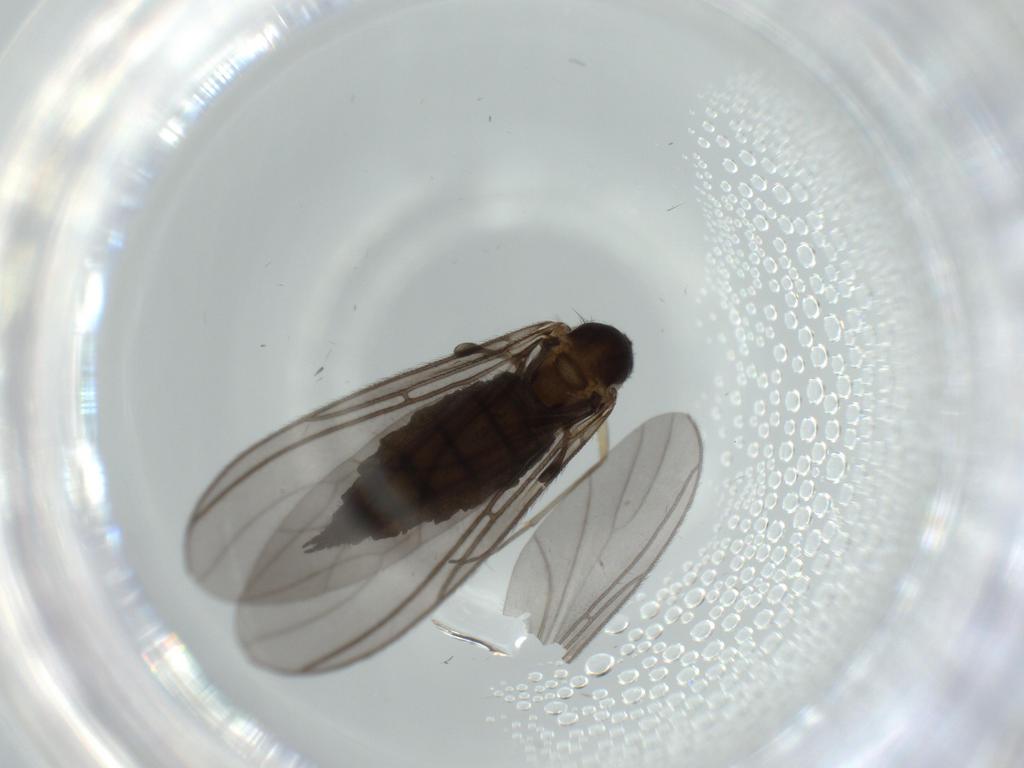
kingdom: Animalia
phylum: Arthropoda
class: Insecta
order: Diptera
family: Sciaridae
